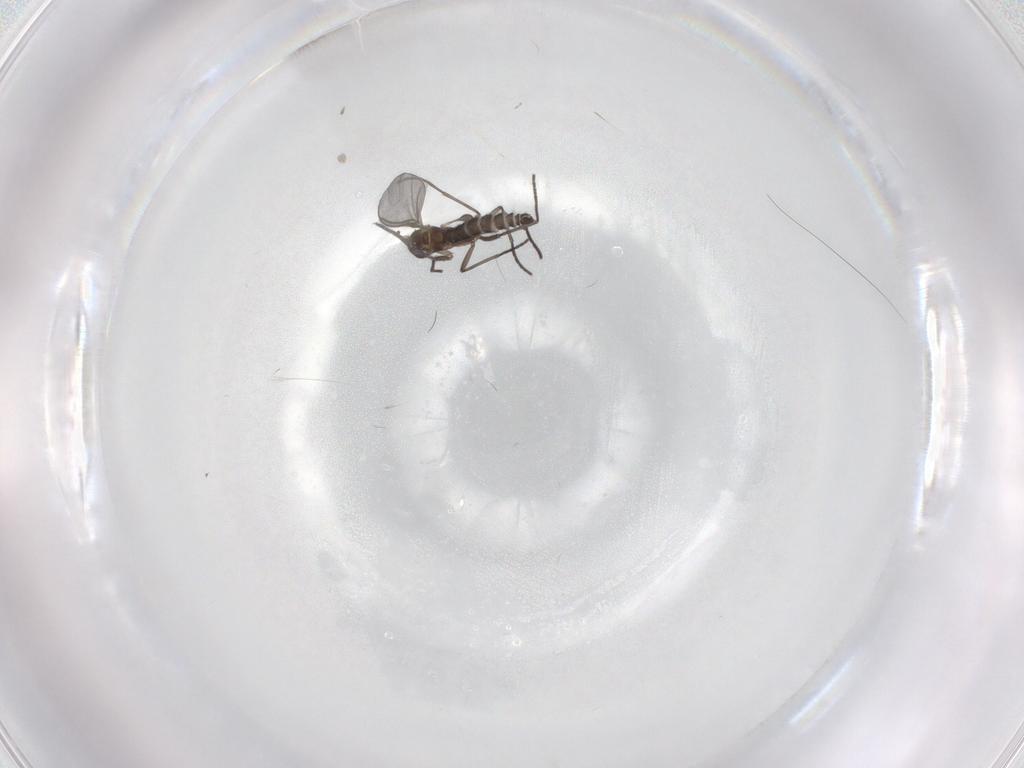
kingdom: Animalia
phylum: Arthropoda
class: Insecta
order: Diptera
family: Sciaridae
